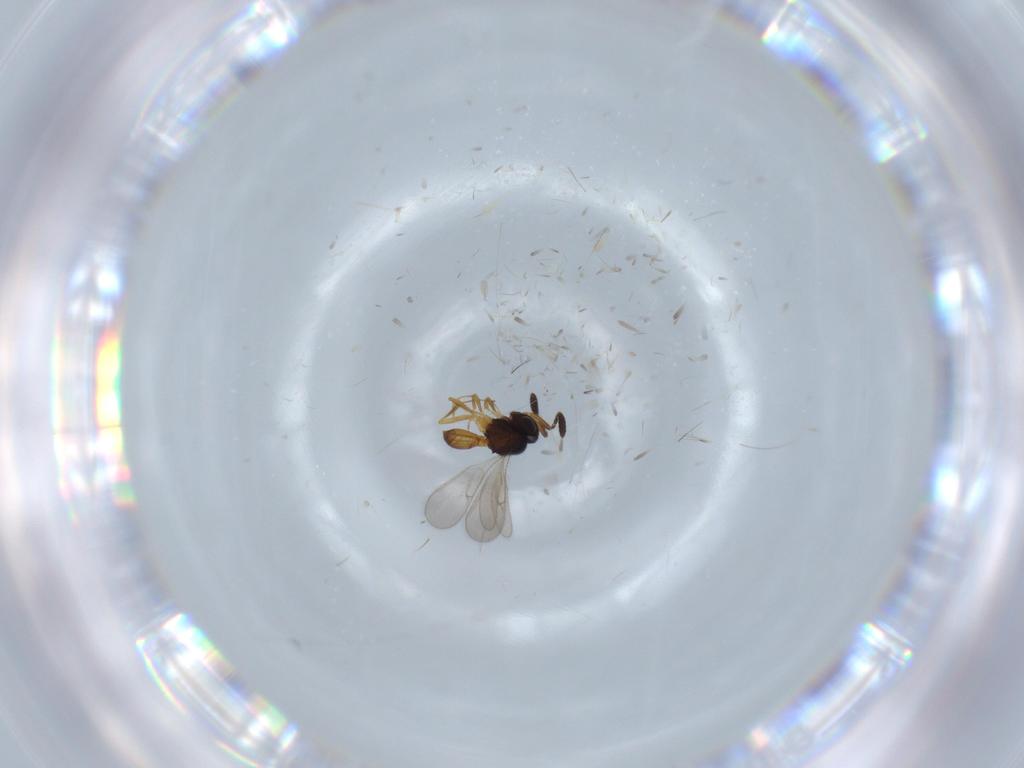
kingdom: Animalia
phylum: Arthropoda
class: Insecta
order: Hymenoptera
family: Scelionidae
